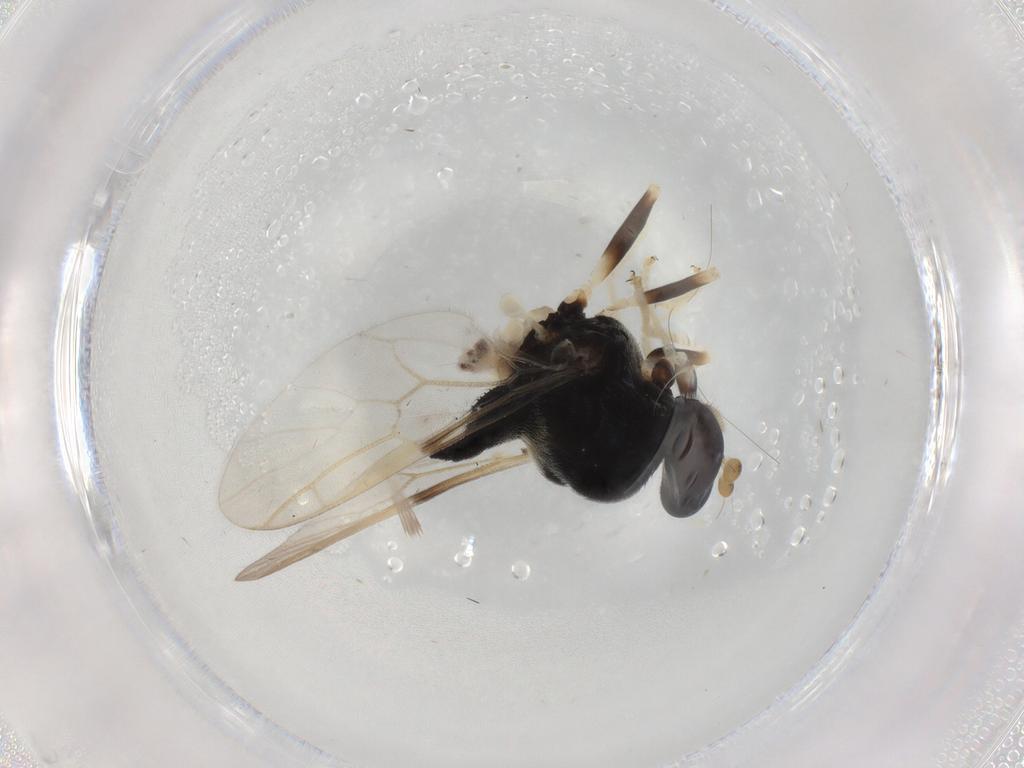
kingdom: Animalia
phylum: Arthropoda
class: Insecta
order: Diptera
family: Stratiomyidae
